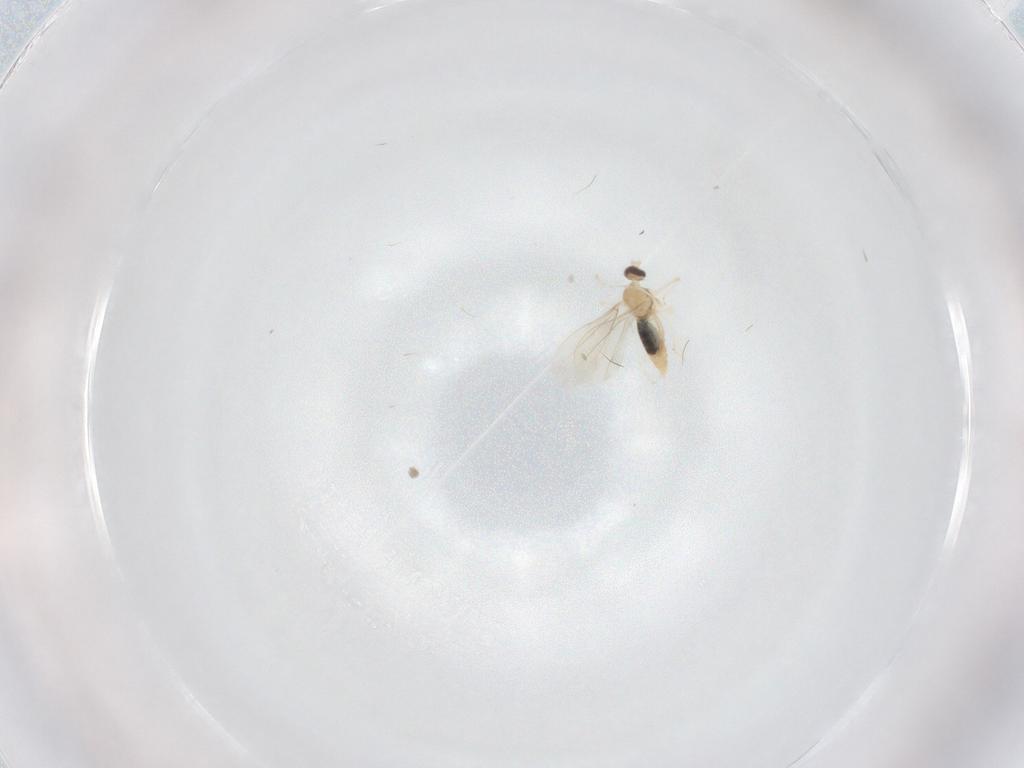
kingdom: Animalia
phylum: Arthropoda
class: Insecta
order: Diptera
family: Cecidomyiidae
